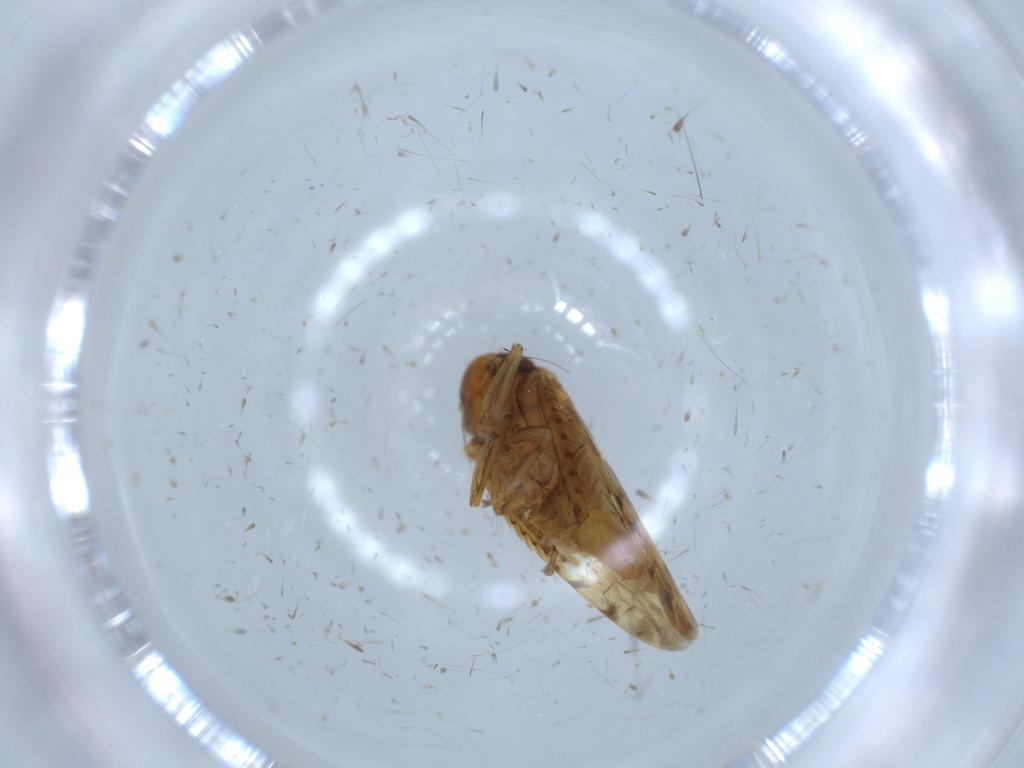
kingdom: Animalia
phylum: Arthropoda
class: Insecta
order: Hemiptera
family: Cicadellidae
